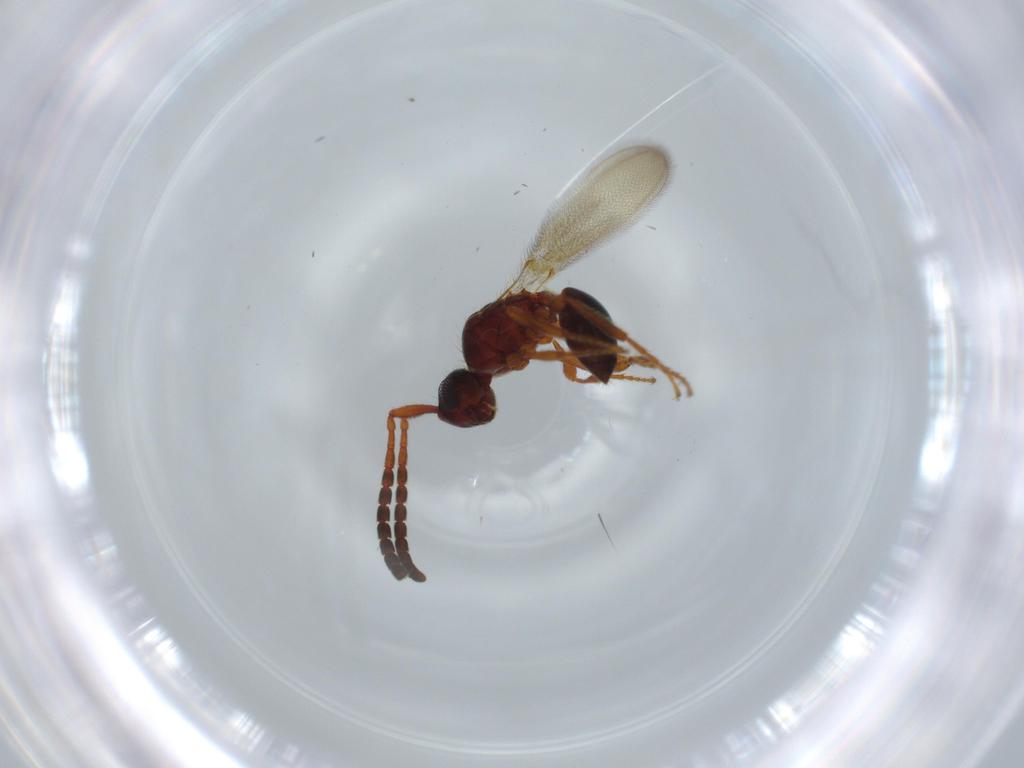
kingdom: Animalia
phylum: Arthropoda
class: Insecta
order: Hymenoptera
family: Diapriidae
